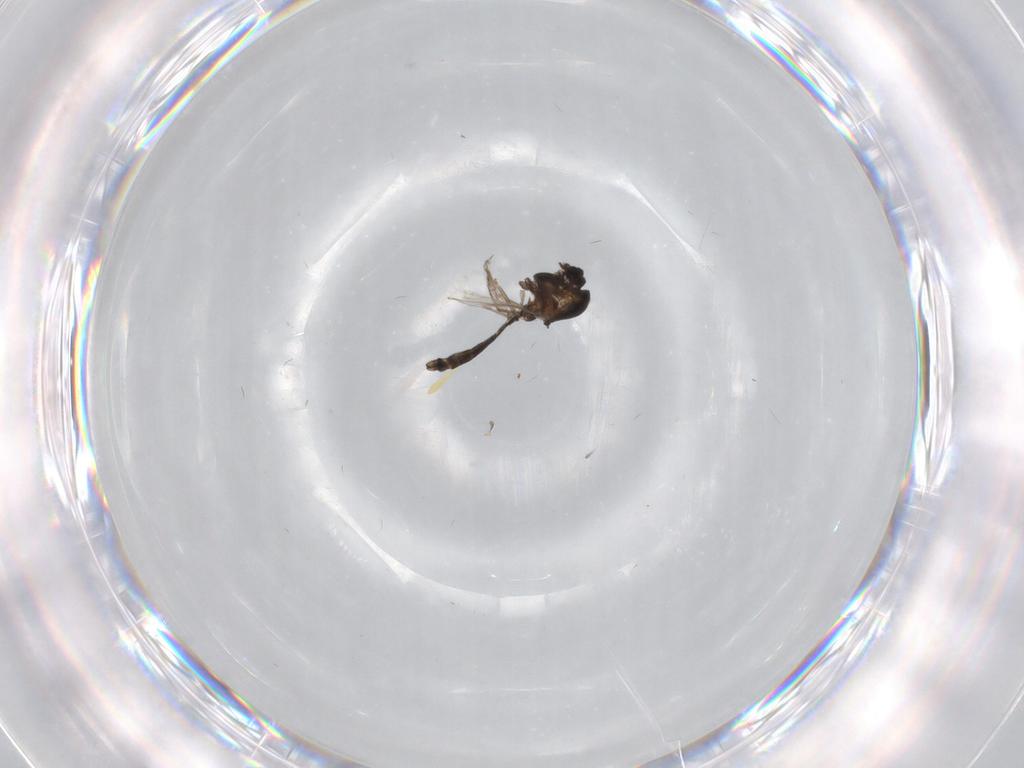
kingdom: Animalia
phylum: Arthropoda
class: Insecta
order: Diptera
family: Chironomidae
